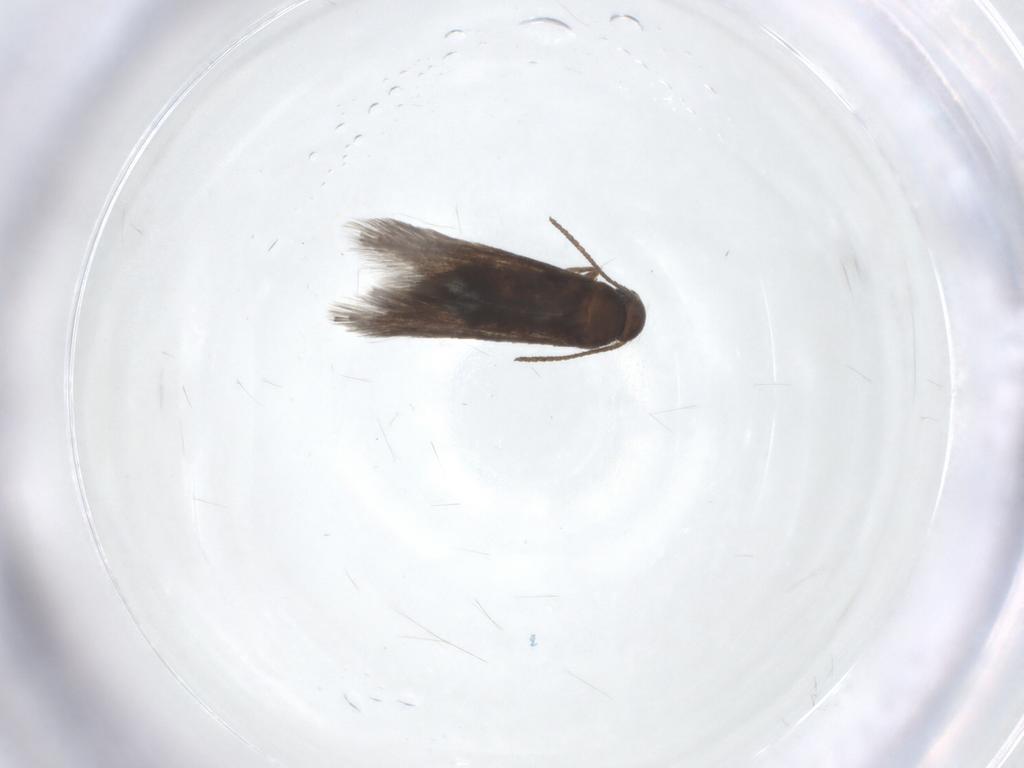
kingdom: Animalia
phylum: Arthropoda
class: Insecta
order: Lepidoptera
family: Heliozelidae
